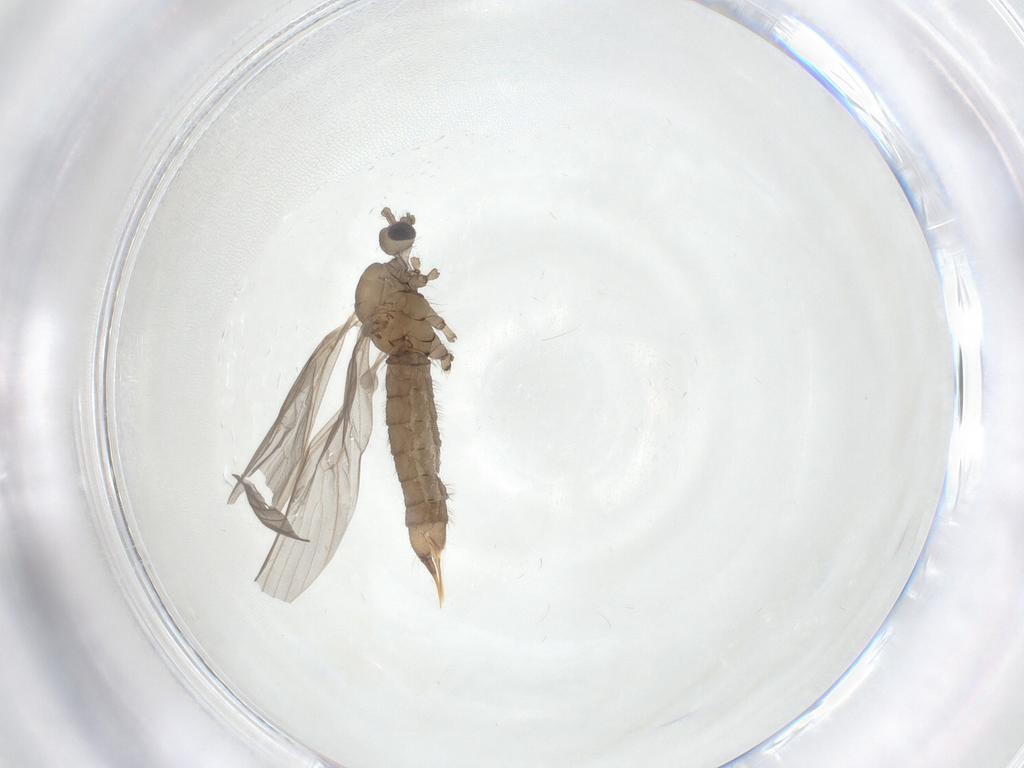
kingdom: Animalia
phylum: Arthropoda
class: Insecta
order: Diptera
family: Limoniidae
